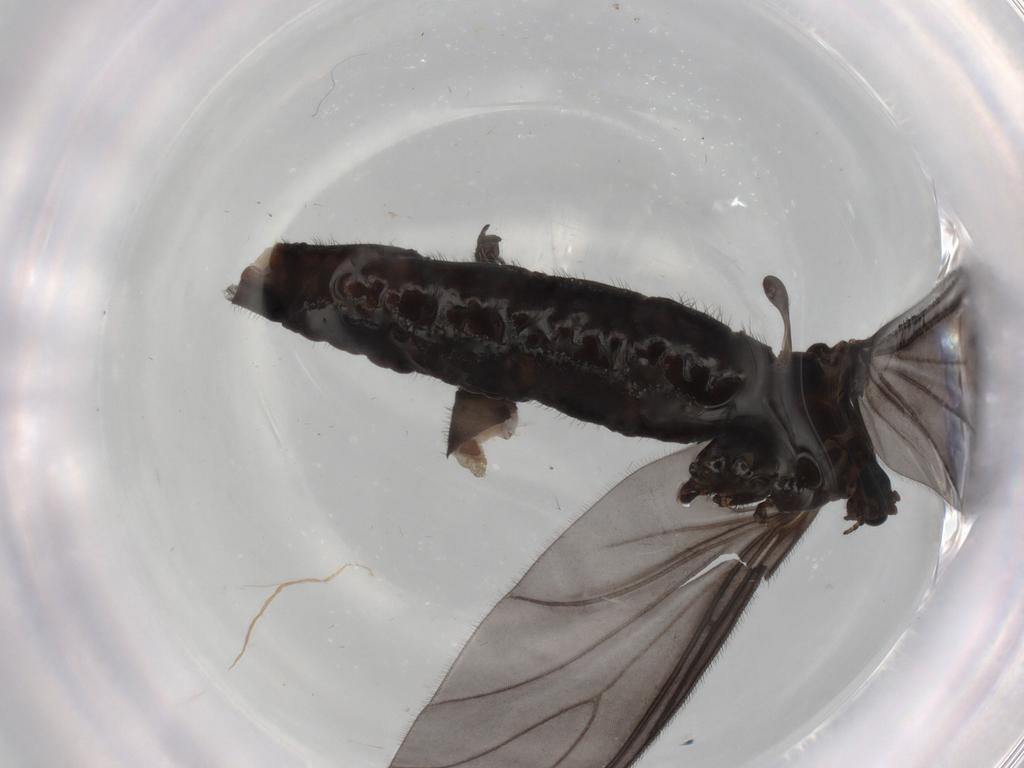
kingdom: Animalia
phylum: Arthropoda
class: Insecta
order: Diptera
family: Sciaridae
